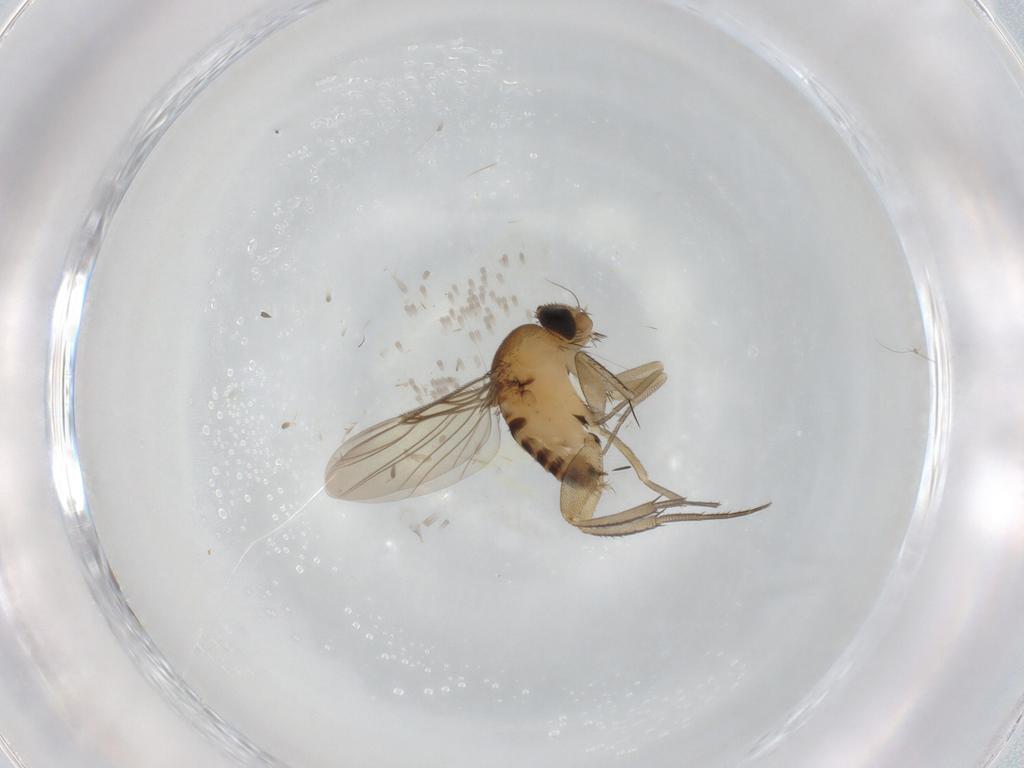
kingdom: Animalia
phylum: Arthropoda
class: Insecta
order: Diptera
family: Phoridae
